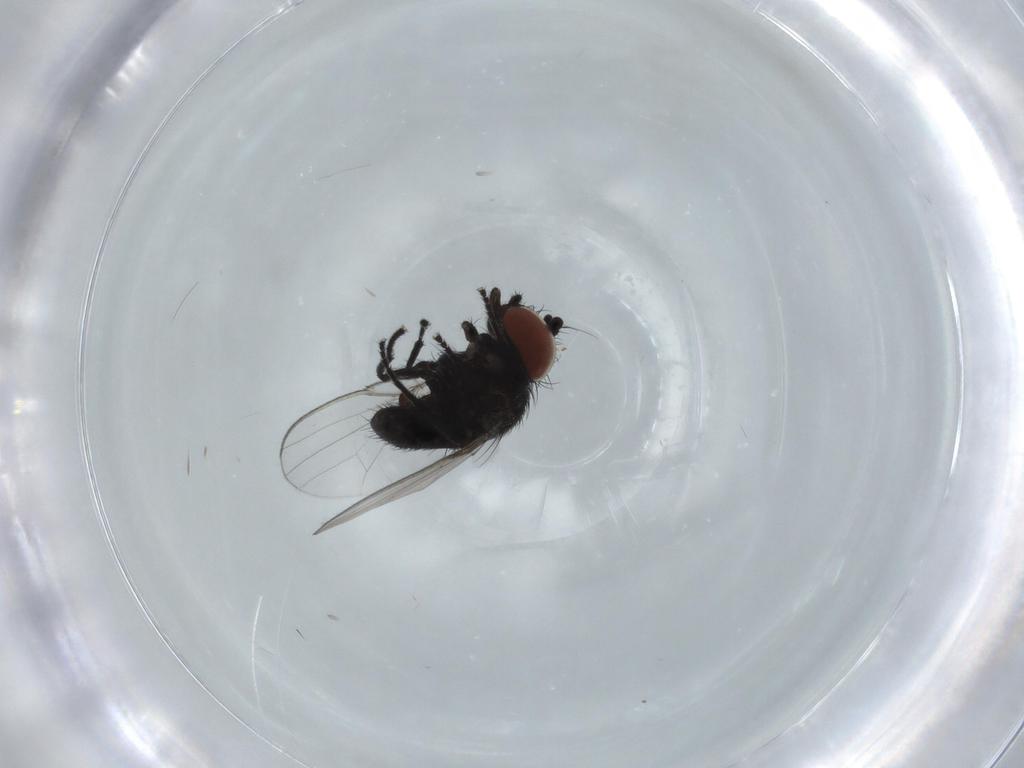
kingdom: Animalia
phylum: Arthropoda
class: Insecta
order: Diptera
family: Milichiidae
